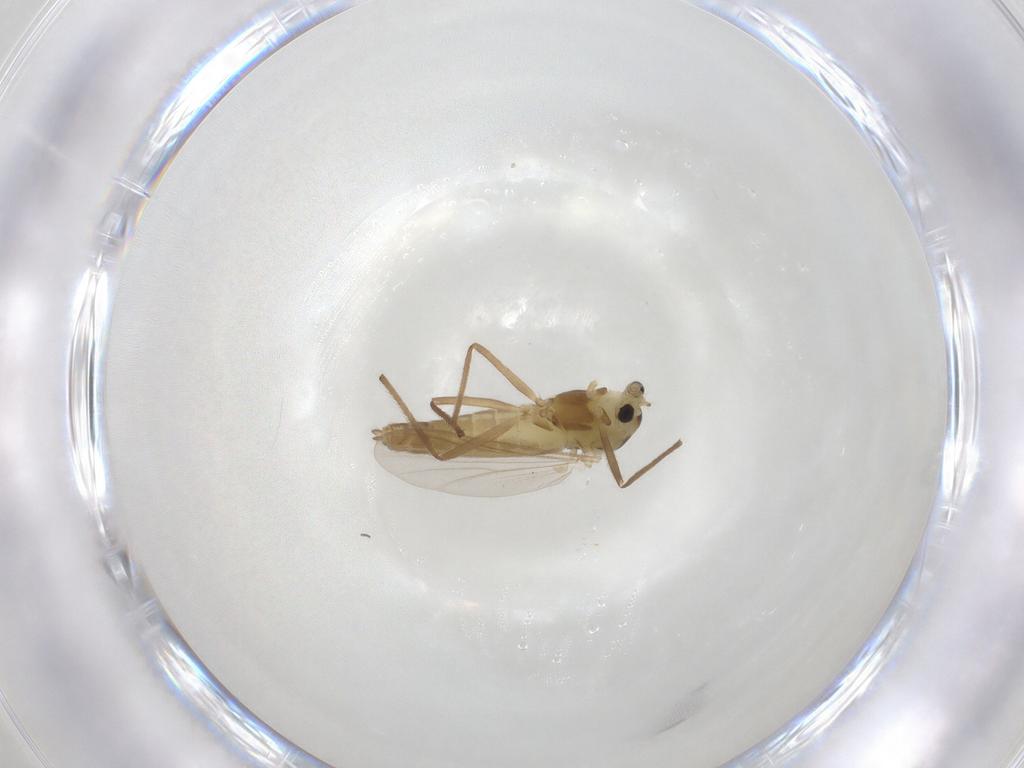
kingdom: Animalia
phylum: Arthropoda
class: Insecta
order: Diptera
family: Chironomidae
